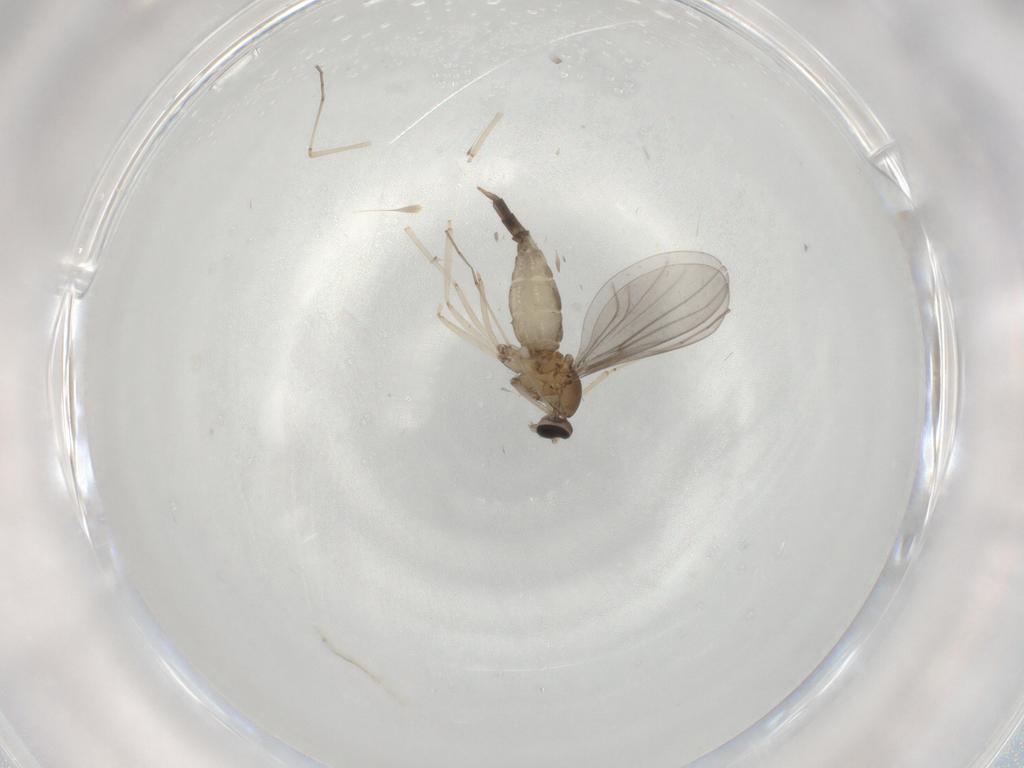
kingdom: Animalia
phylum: Arthropoda
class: Insecta
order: Diptera
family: Cecidomyiidae
